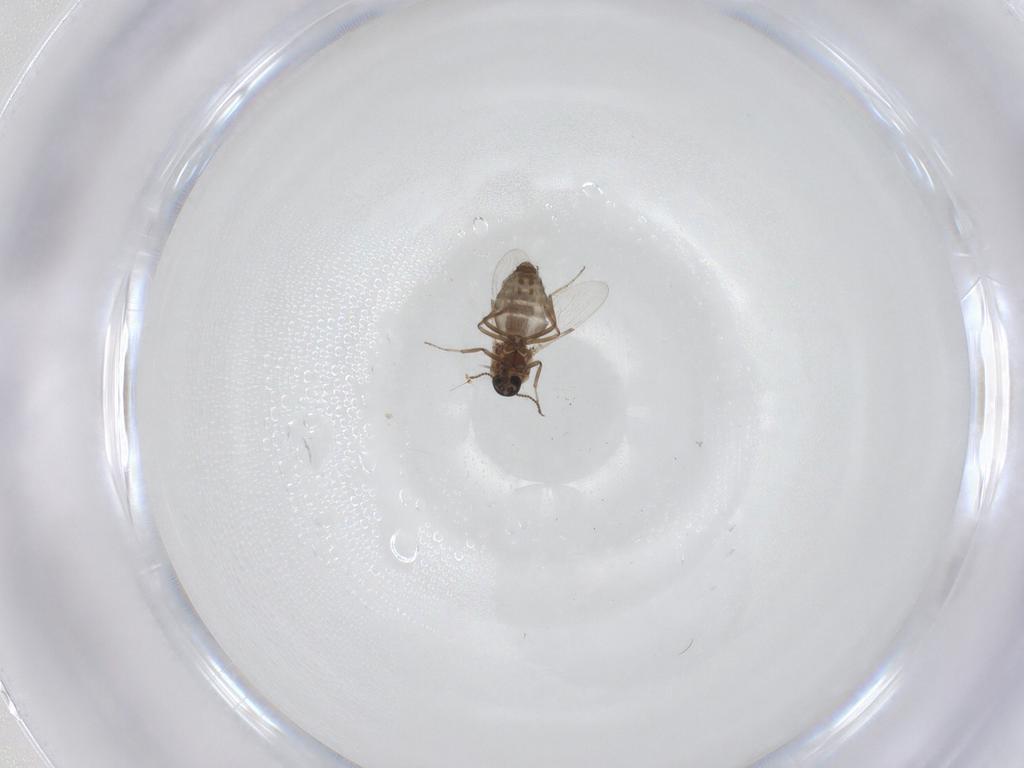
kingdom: Animalia
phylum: Arthropoda
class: Insecta
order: Diptera
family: Ceratopogonidae
